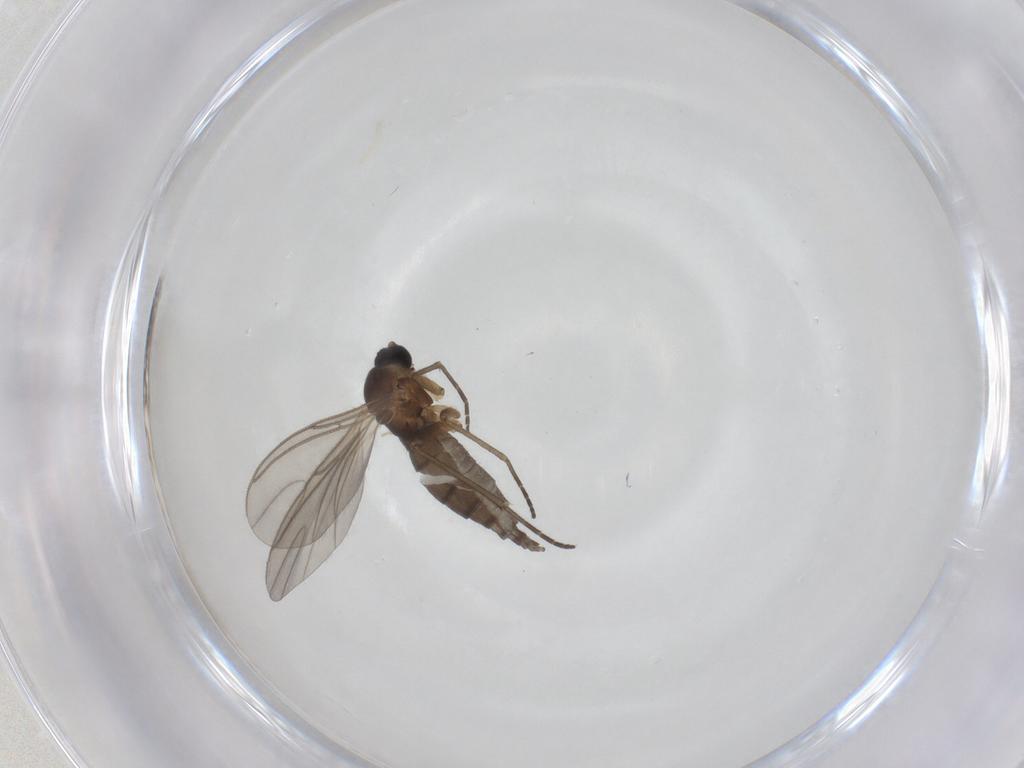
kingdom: Animalia
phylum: Arthropoda
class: Insecta
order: Diptera
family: Sciaridae
